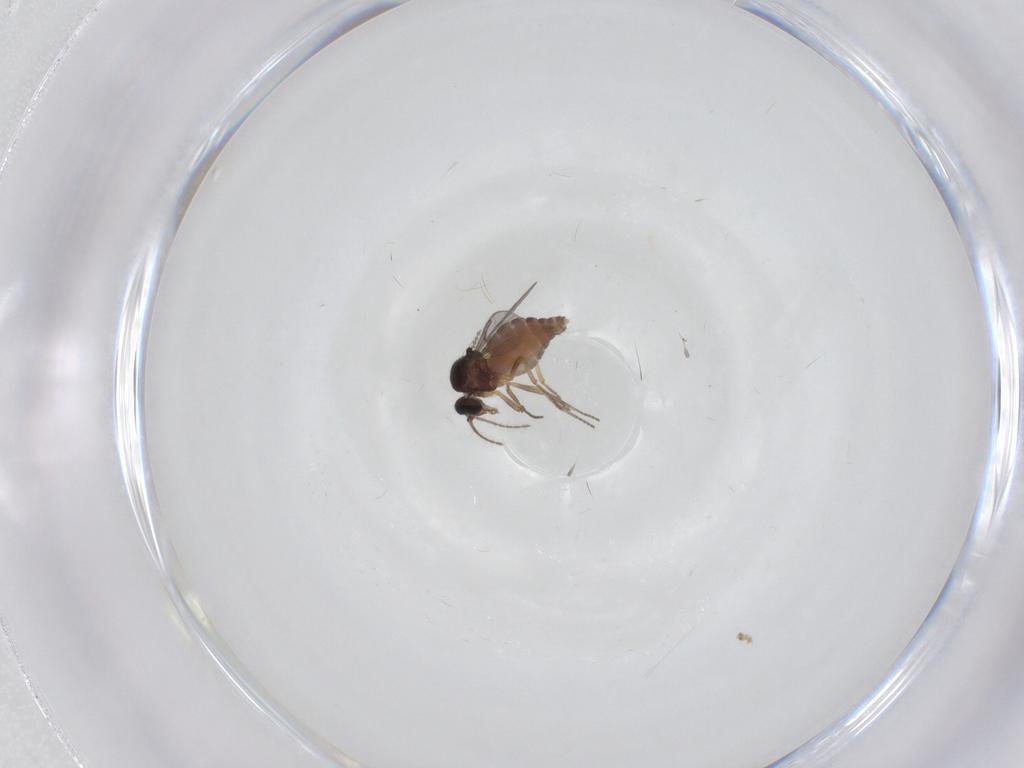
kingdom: Animalia
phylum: Arthropoda
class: Insecta
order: Diptera
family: Ceratopogonidae
